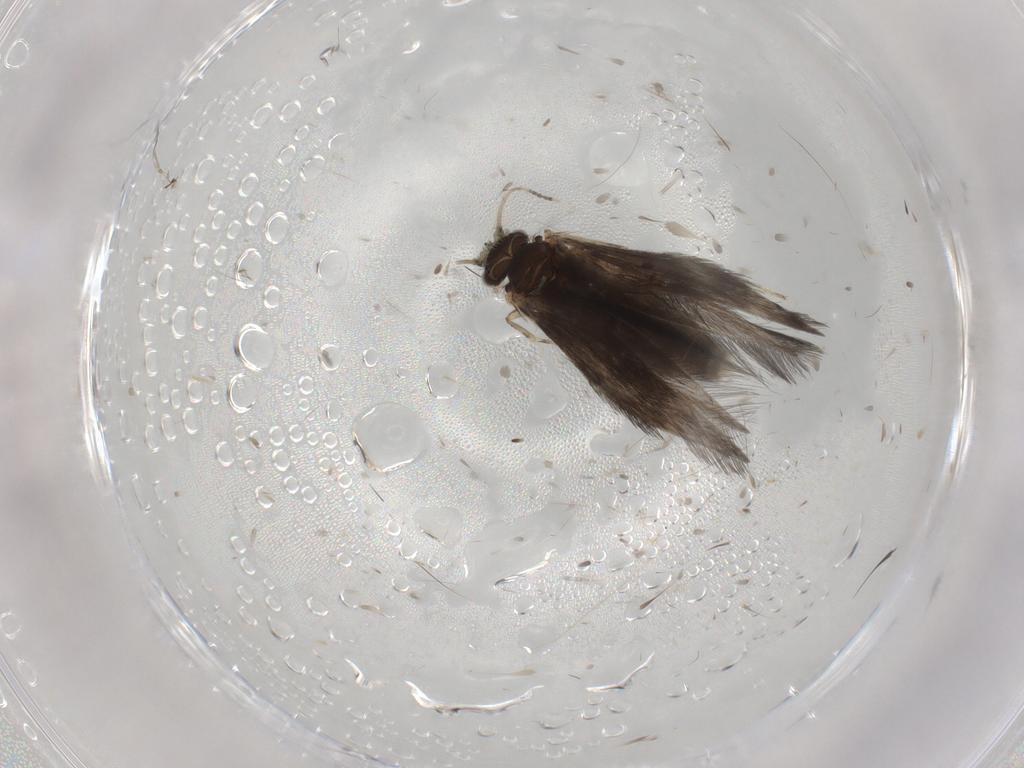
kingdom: Animalia
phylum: Arthropoda
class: Insecta
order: Lepidoptera
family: Autostichidae
